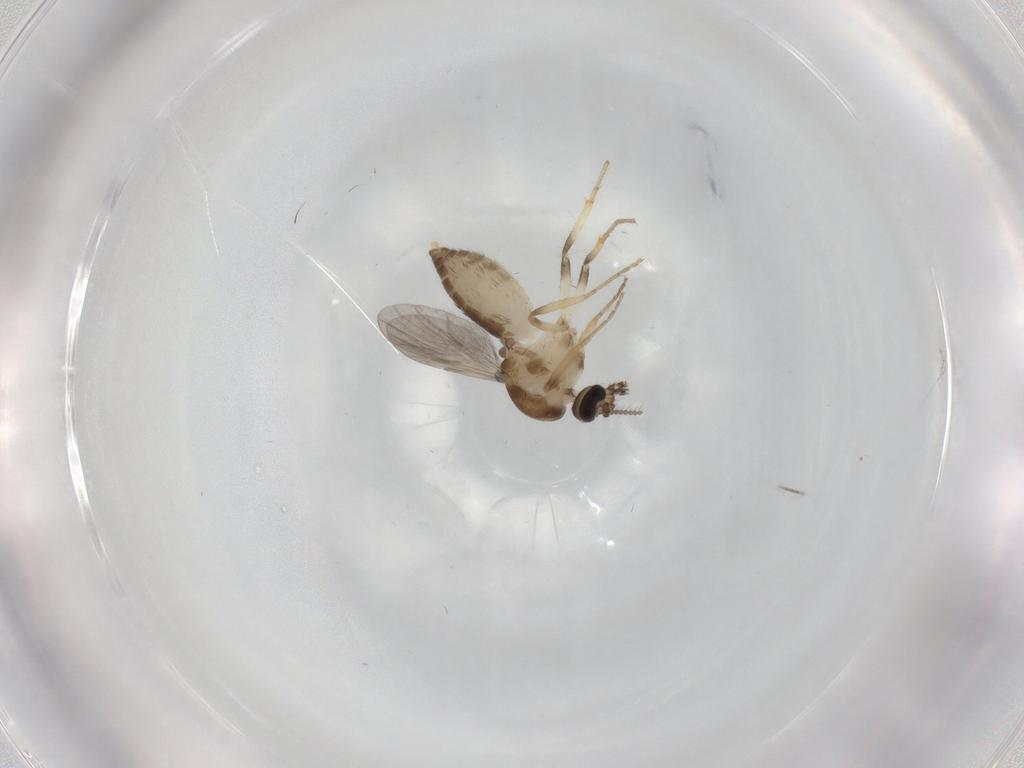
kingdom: Animalia
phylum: Arthropoda
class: Insecta
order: Diptera
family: Ceratopogonidae
